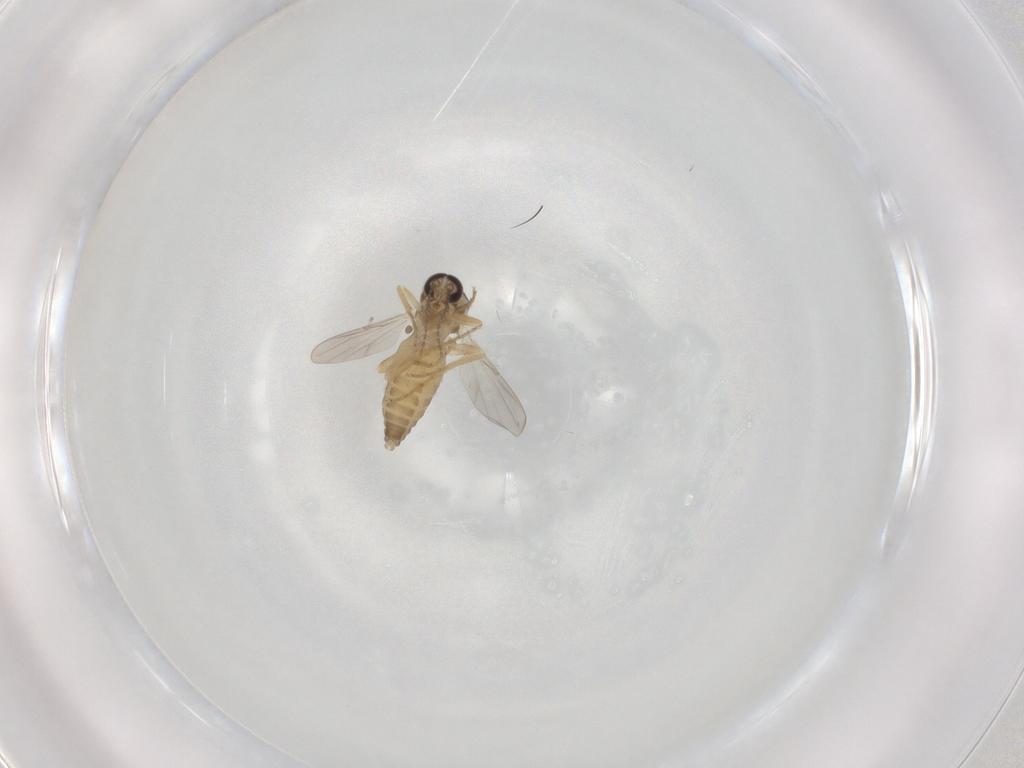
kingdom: Animalia
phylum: Arthropoda
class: Insecta
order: Diptera
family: Ceratopogonidae
